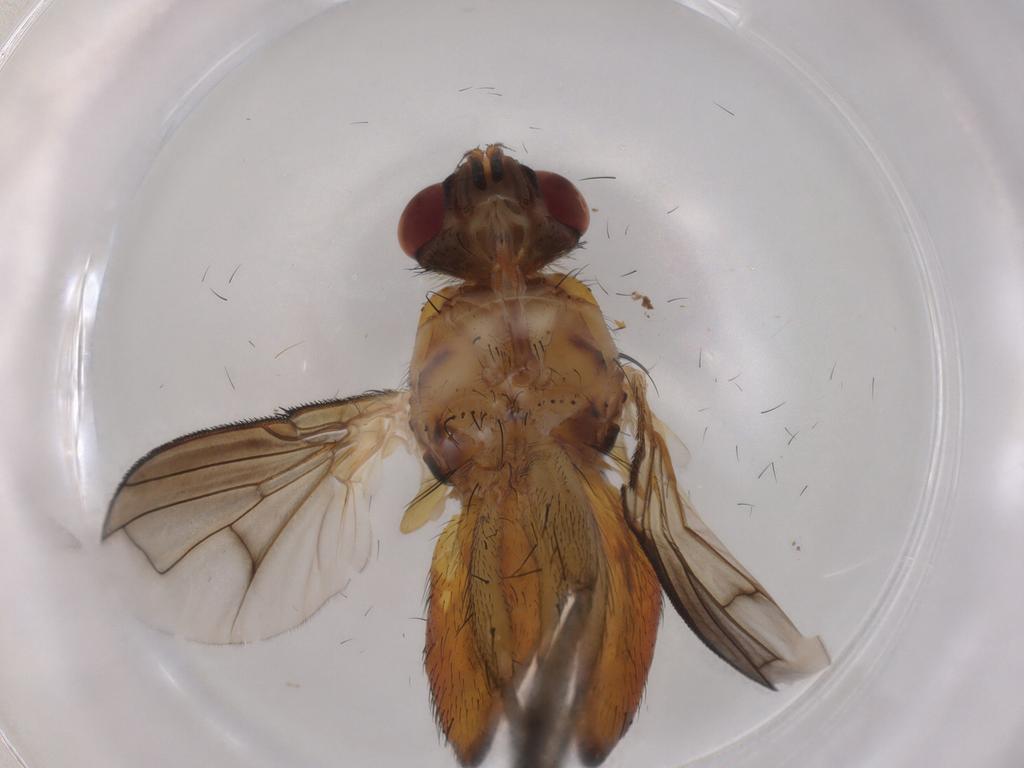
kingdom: Animalia
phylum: Arthropoda
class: Insecta
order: Diptera
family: Tachinidae
